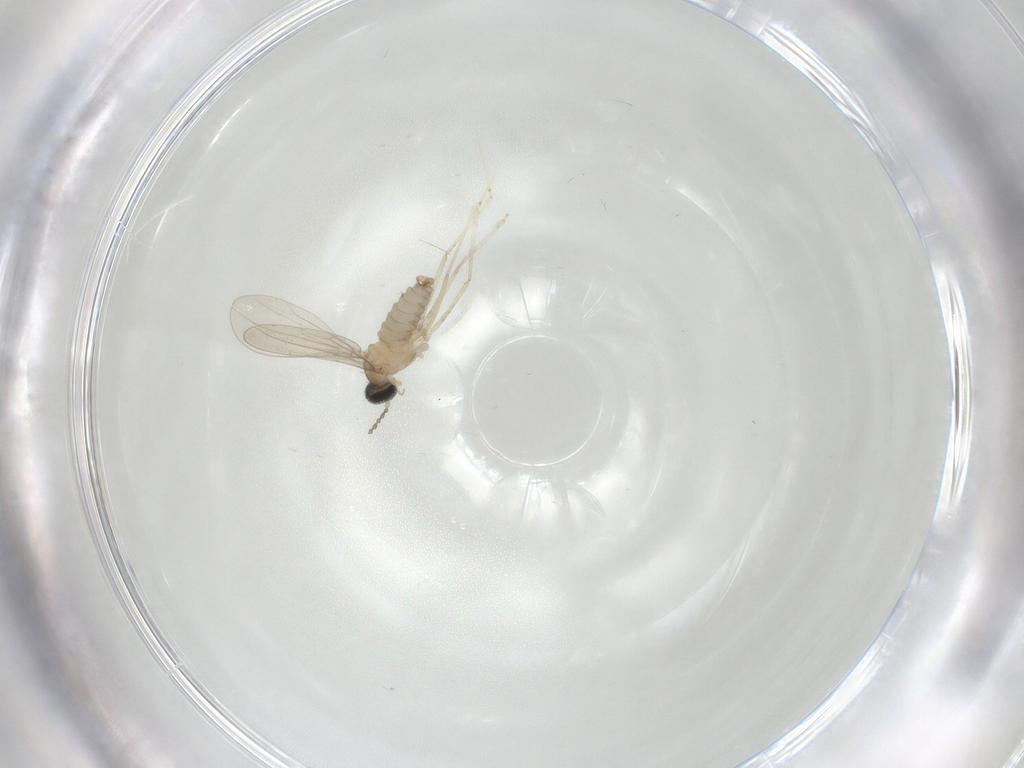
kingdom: Animalia
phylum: Arthropoda
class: Insecta
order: Diptera
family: Cecidomyiidae
